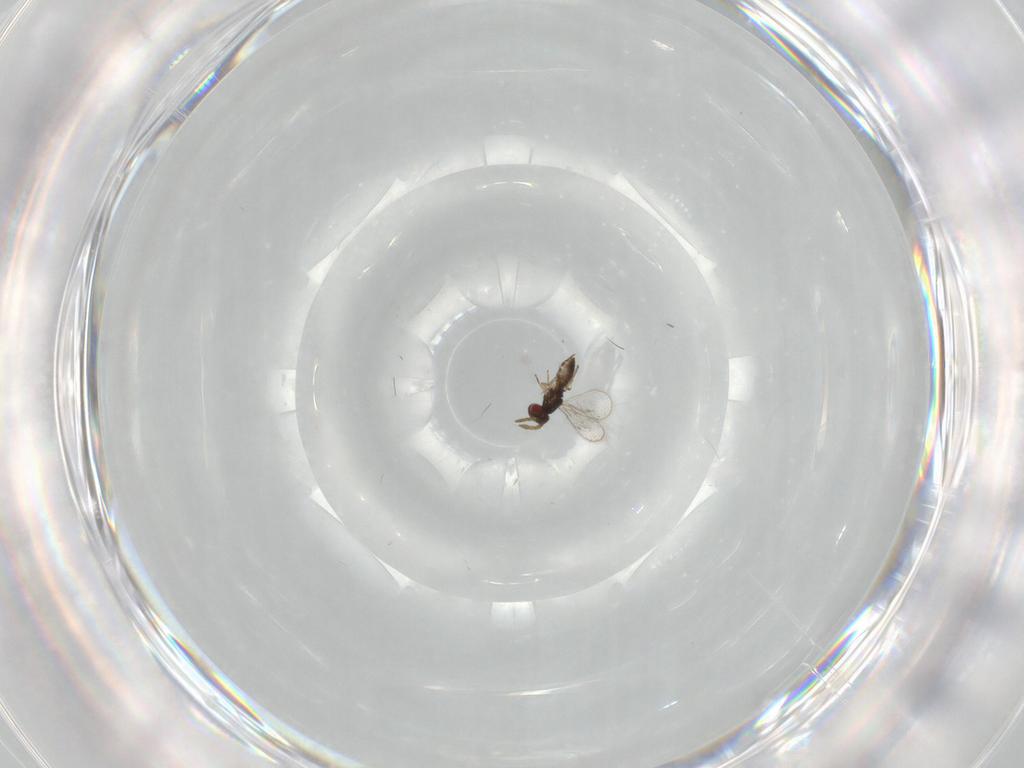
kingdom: Animalia
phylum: Arthropoda
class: Insecta
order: Hymenoptera
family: Eulophidae
